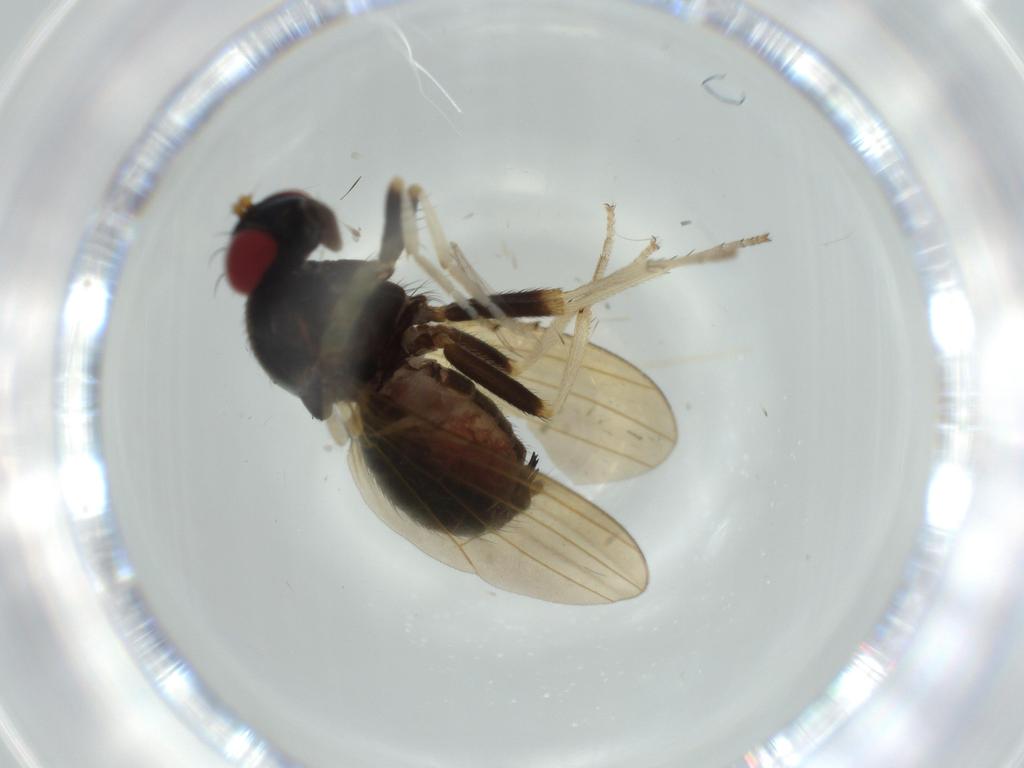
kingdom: Animalia
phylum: Arthropoda
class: Insecta
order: Diptera
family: Lauxaniidae
